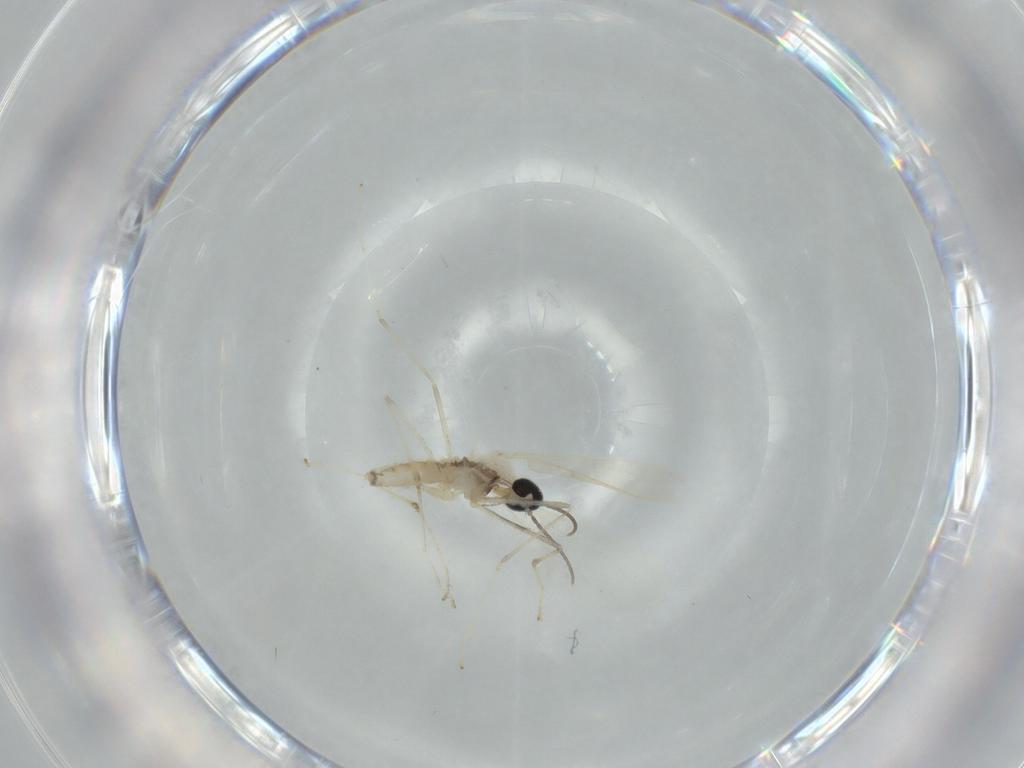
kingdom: Animalia
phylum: Arthropoda
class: Insecta
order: Diptera
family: Cecidomyiidae
